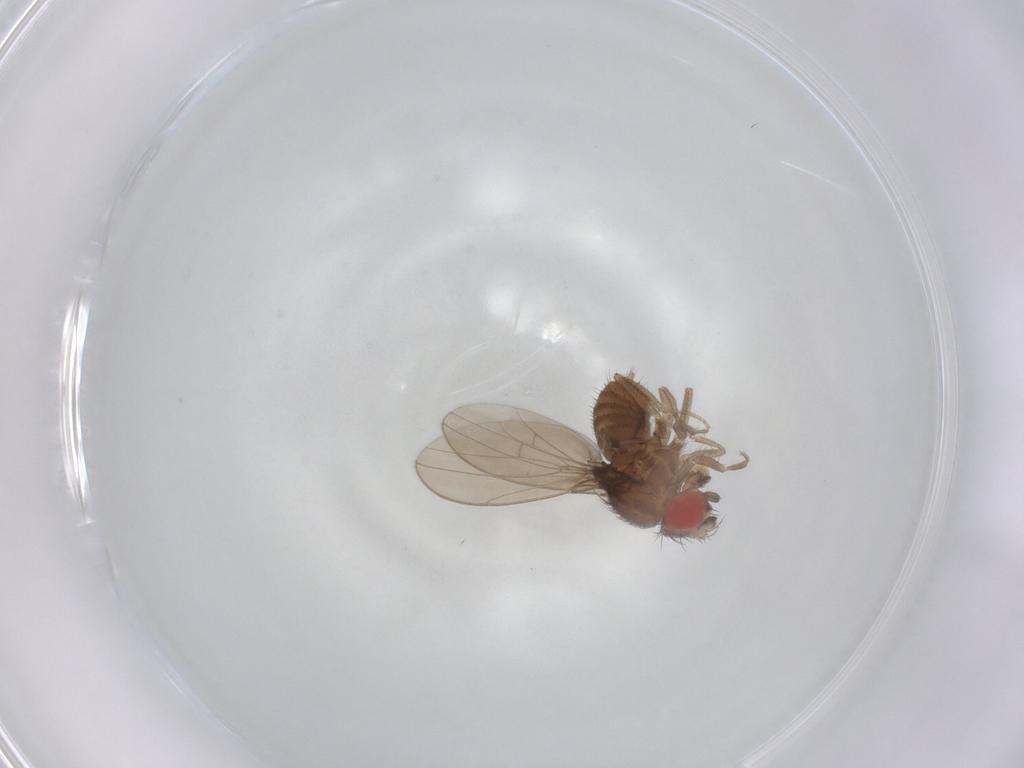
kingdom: Animalia
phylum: Arthropoda
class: Insecta
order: Diptera
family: Drosophilidae
